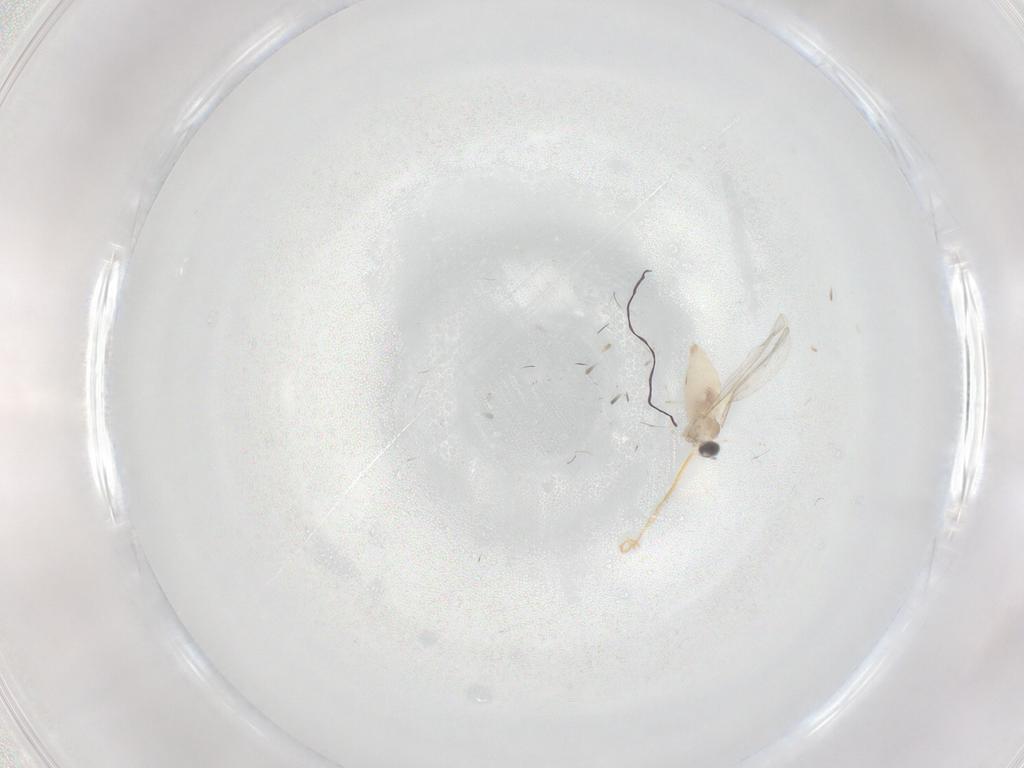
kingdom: Animalia
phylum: Arthropoda
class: Insecta
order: Diptera
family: Cecidomyiidae
